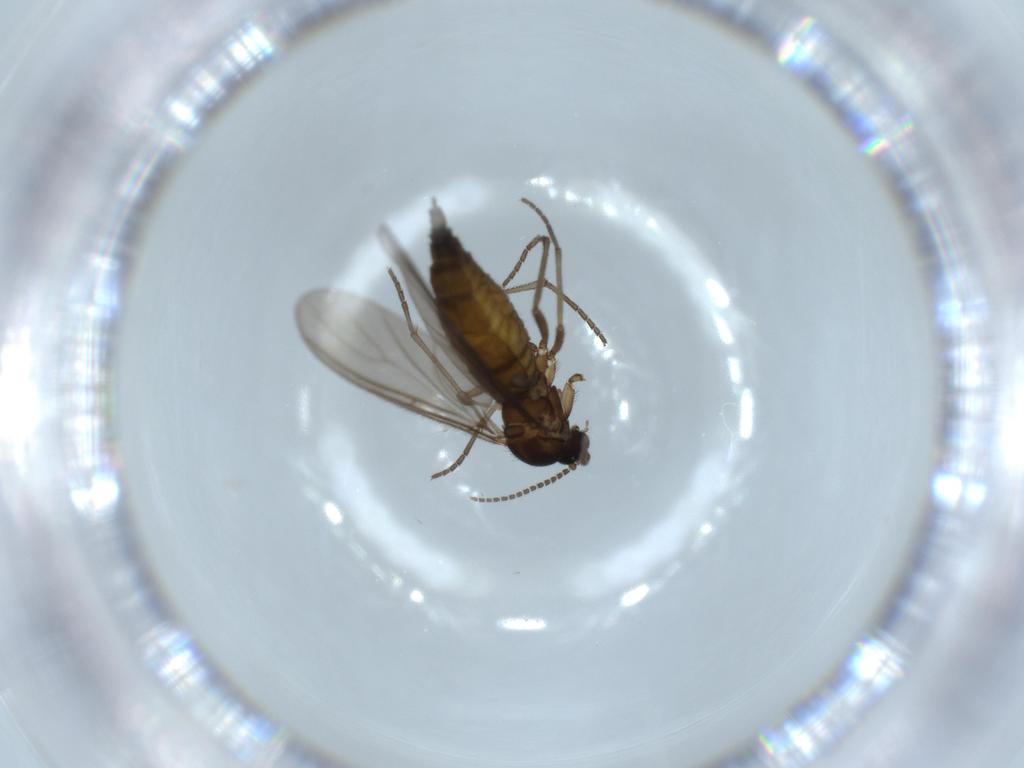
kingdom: Animalia
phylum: Arthropoda
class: Insecta
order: Diptera
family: Sciaridae
